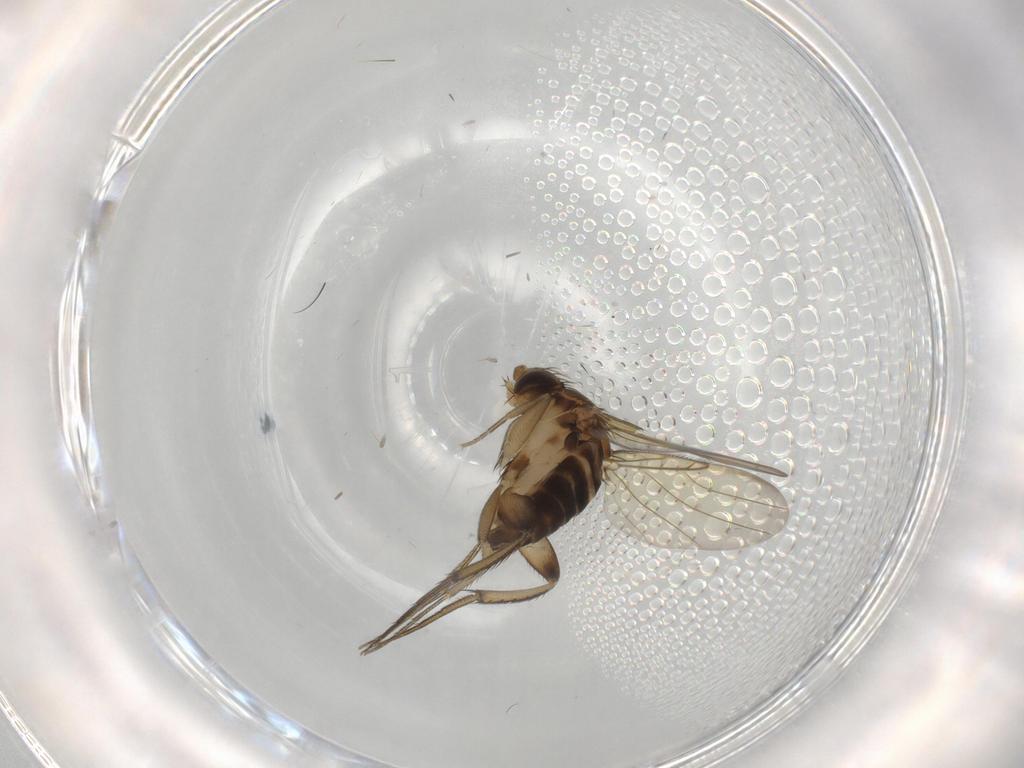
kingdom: Animalia
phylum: Arthropoda
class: Insecta
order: Diptera
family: Phoridae
